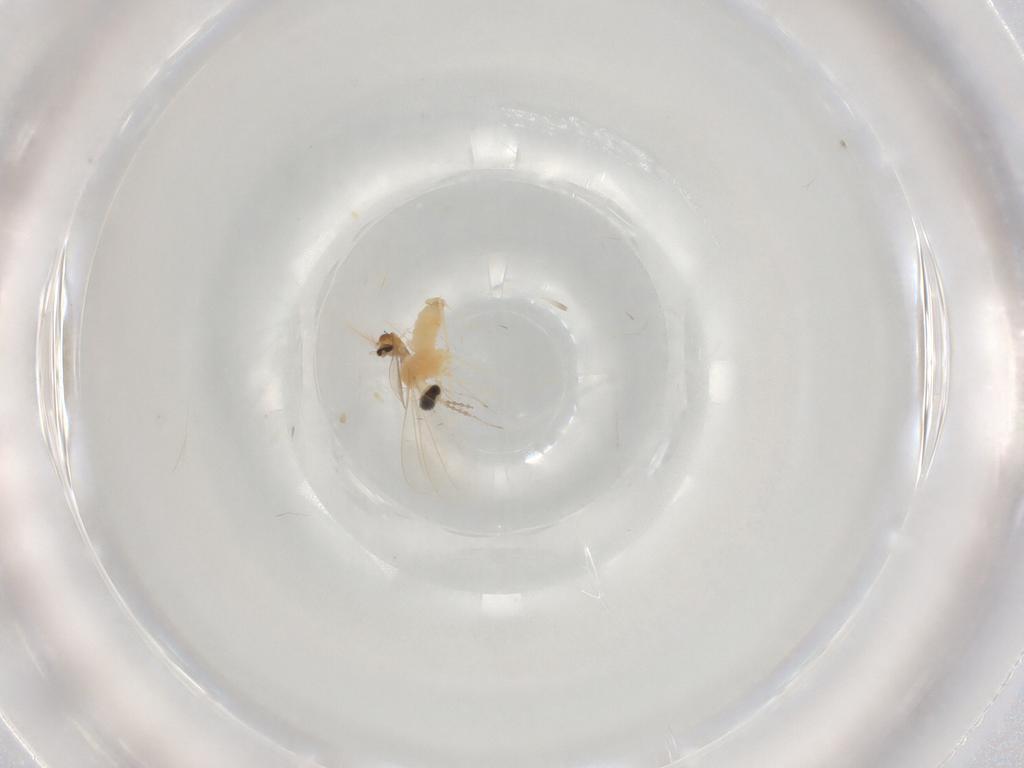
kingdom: Animalia
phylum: Arthropoda
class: Insecta
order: Diptera
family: Cecidomyiidae
